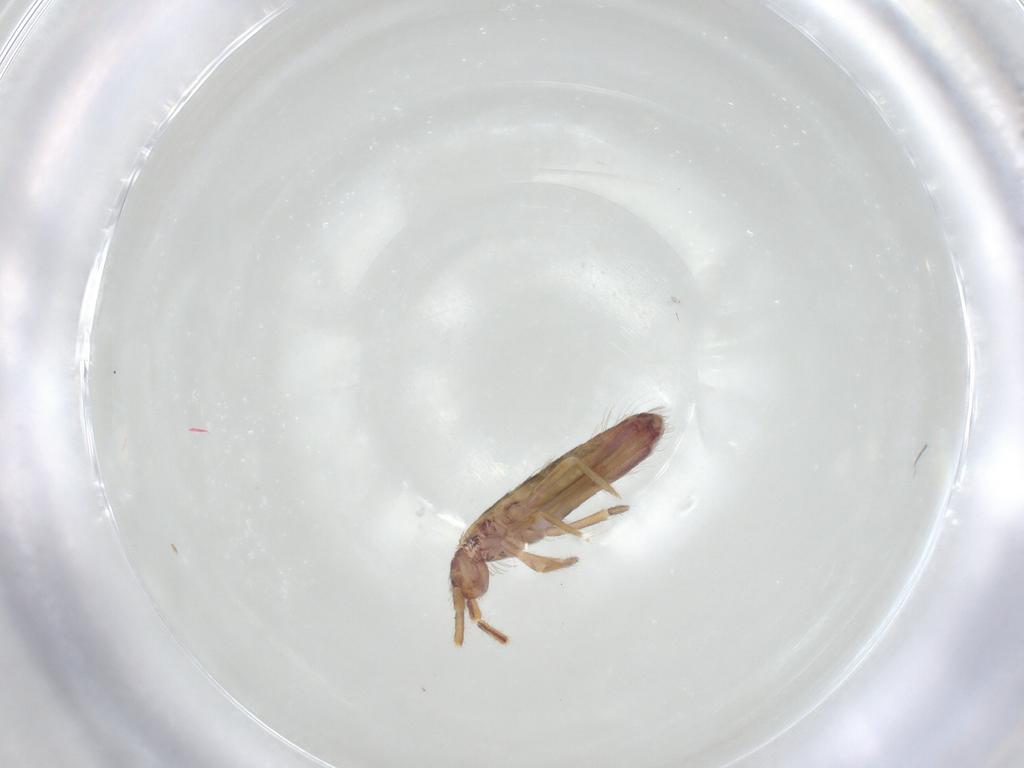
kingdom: Animalia
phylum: Arthropoda
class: Collembola
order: Entomobryomorpha
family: Entomobryidae
